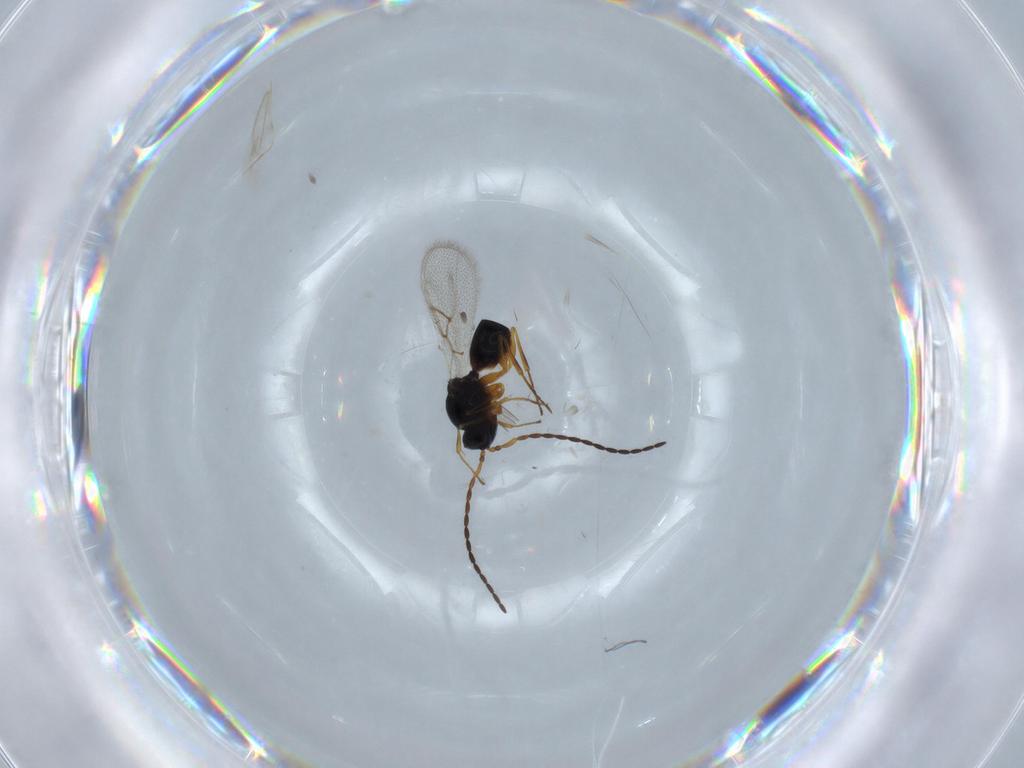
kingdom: Animalia
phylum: Arthropoda
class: Insecta
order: Hymenoptera
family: Figitidae
